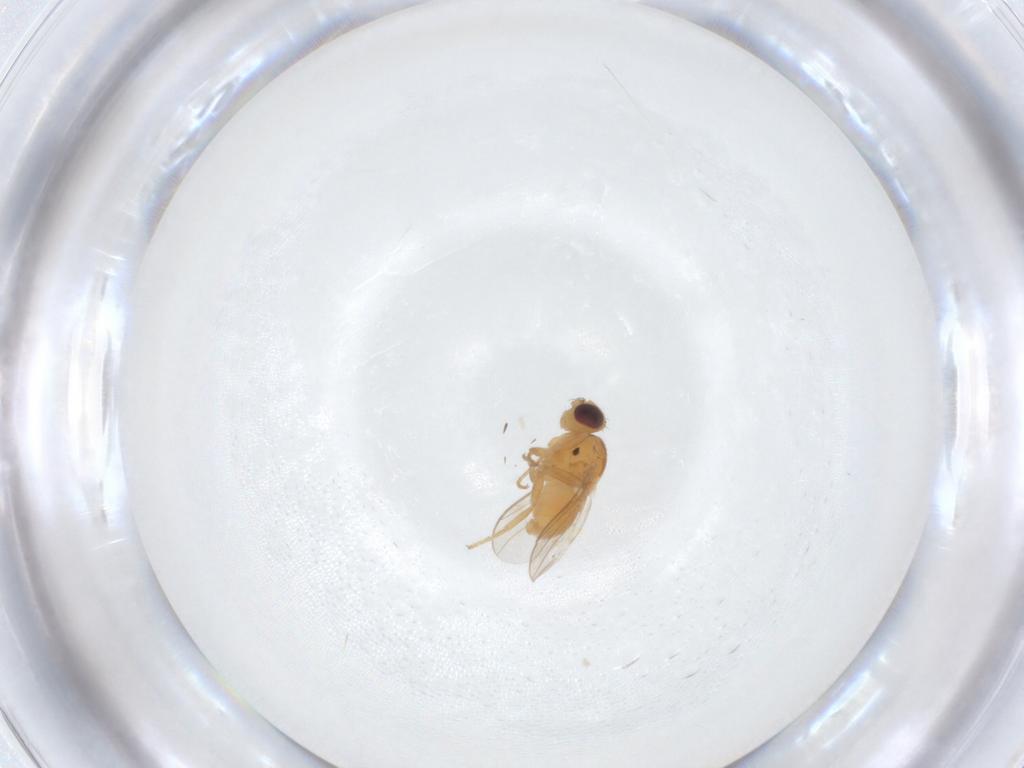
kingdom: Animalia
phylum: Arthropoda
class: Insecta
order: Diptera
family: Chloropidae
